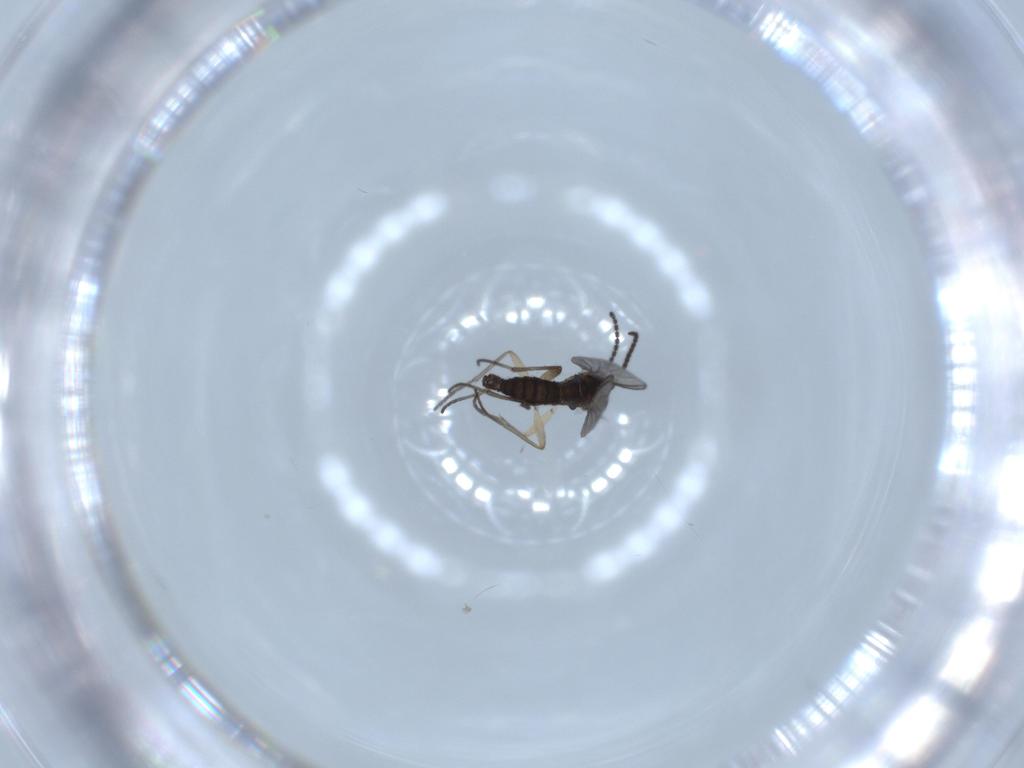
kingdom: Animalia
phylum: Arthropoda
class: Insecta
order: Diptera
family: Sciaridae
